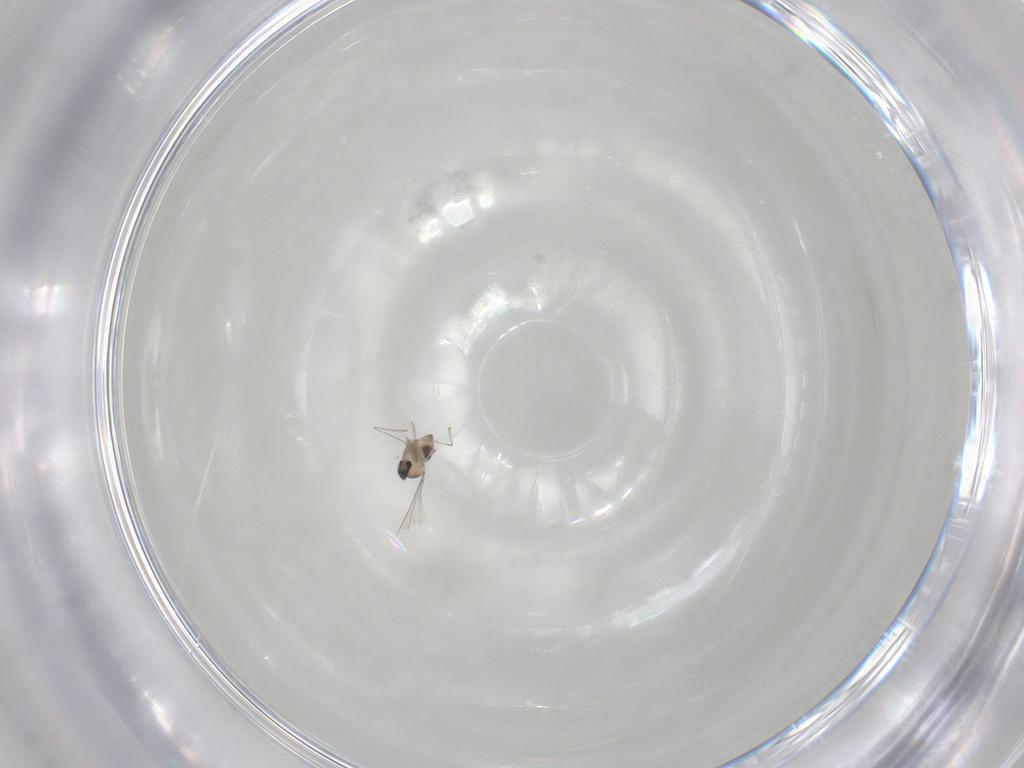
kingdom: Animalia
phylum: Arthropoda
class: Insecta
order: Diptera
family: Cecidomyiidae
